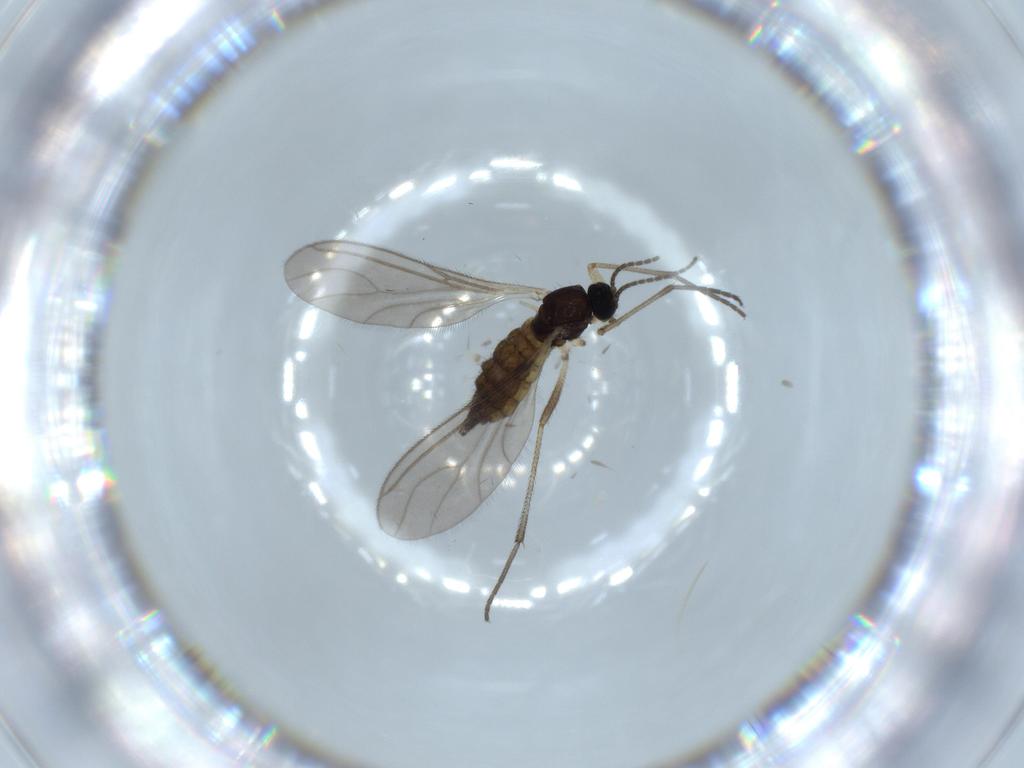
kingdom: Animalia
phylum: Arthropoda
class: Insecta
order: Diptera
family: Sciaridae
